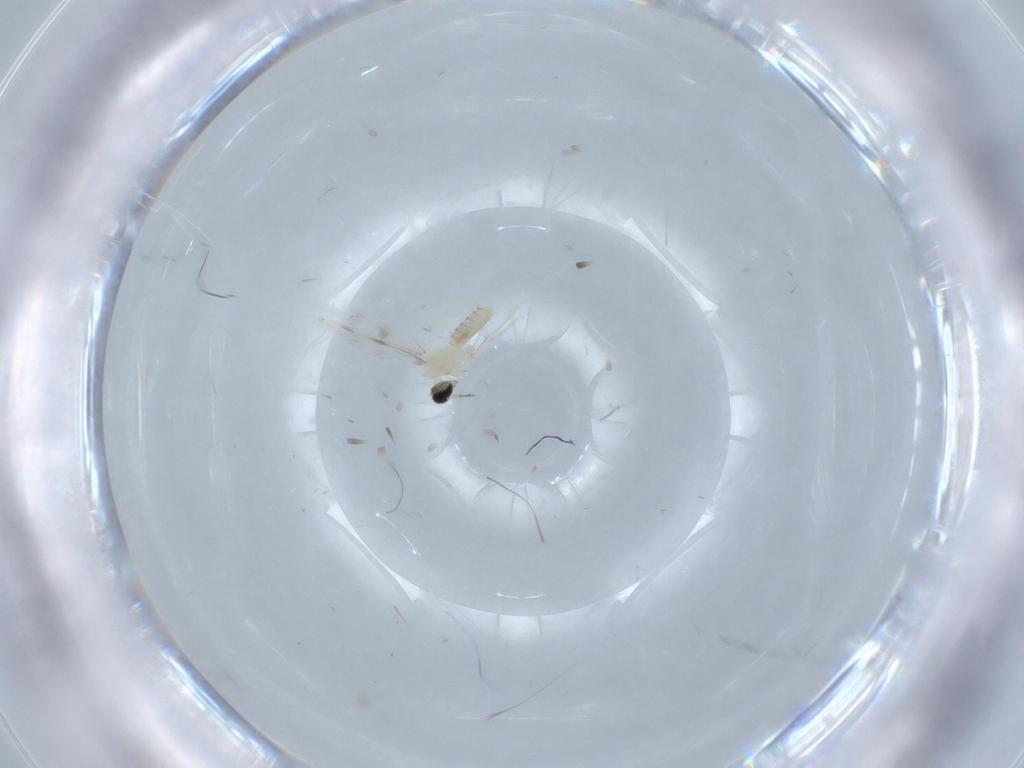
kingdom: Animalia
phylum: Arthropoda
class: Insecta
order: Diptera
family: Cecidomyiidae
